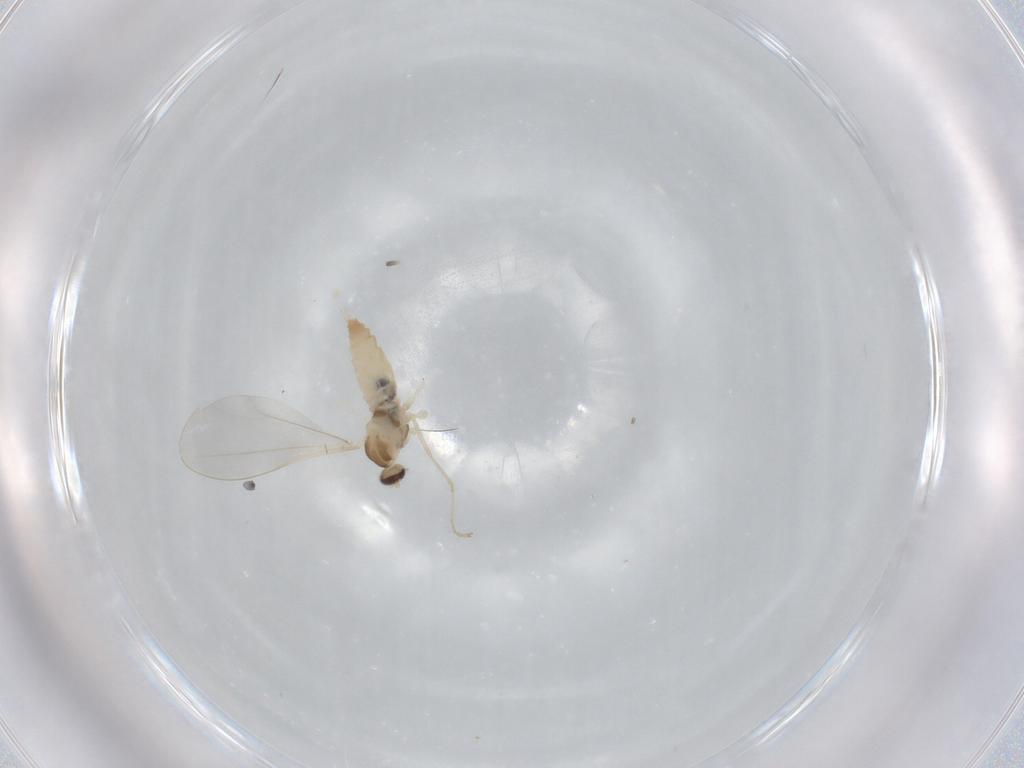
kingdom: Animalia
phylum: Arthropoda
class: Insecta
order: Diptera
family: Cecidomyiidae
